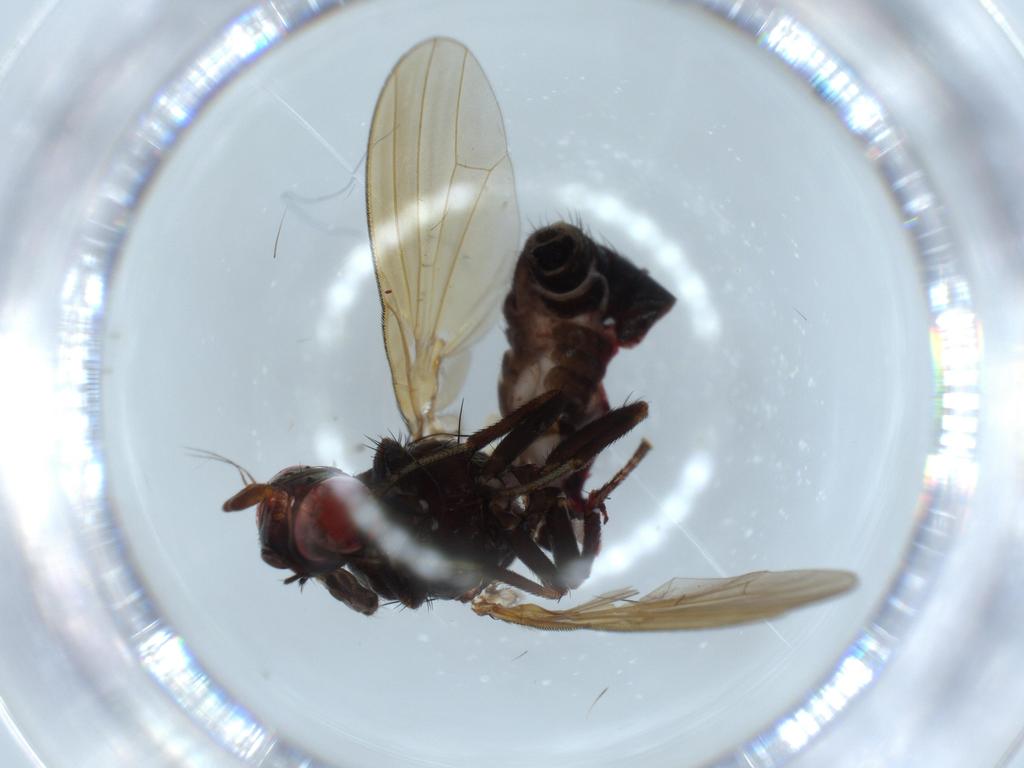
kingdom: Animalia
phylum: Arthropoda
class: Insecta
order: Diptera
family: Lauxaniidae
